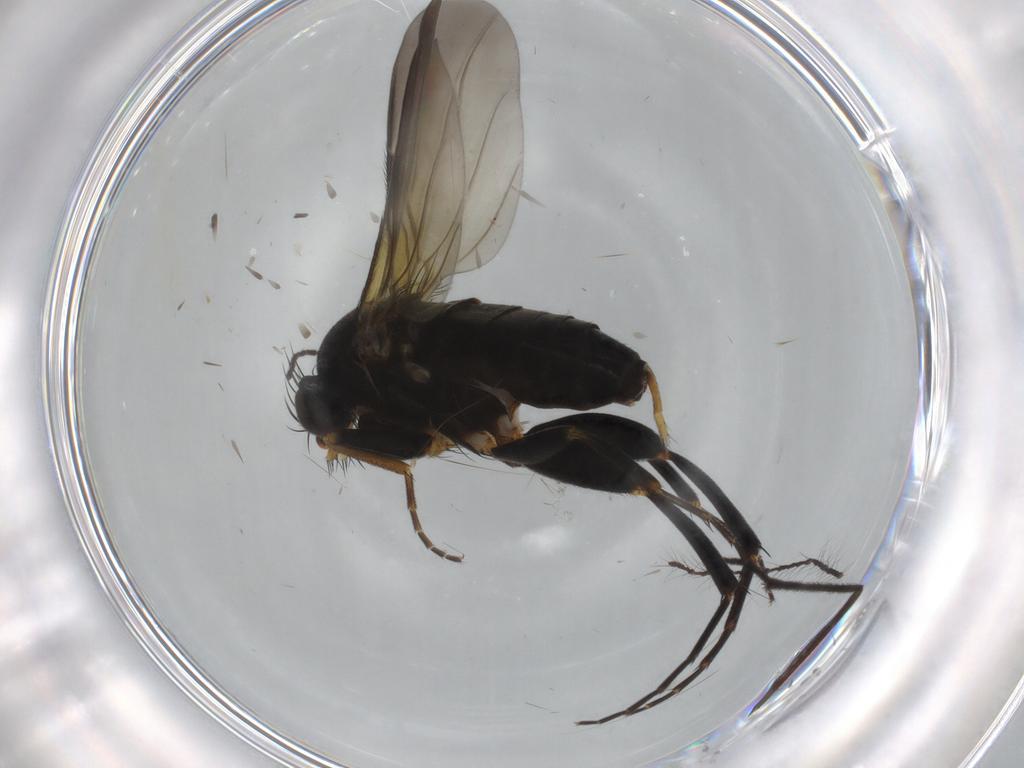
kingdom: Animalia
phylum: Arthropoda
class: Insecta
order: Diptera
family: Phoridae
